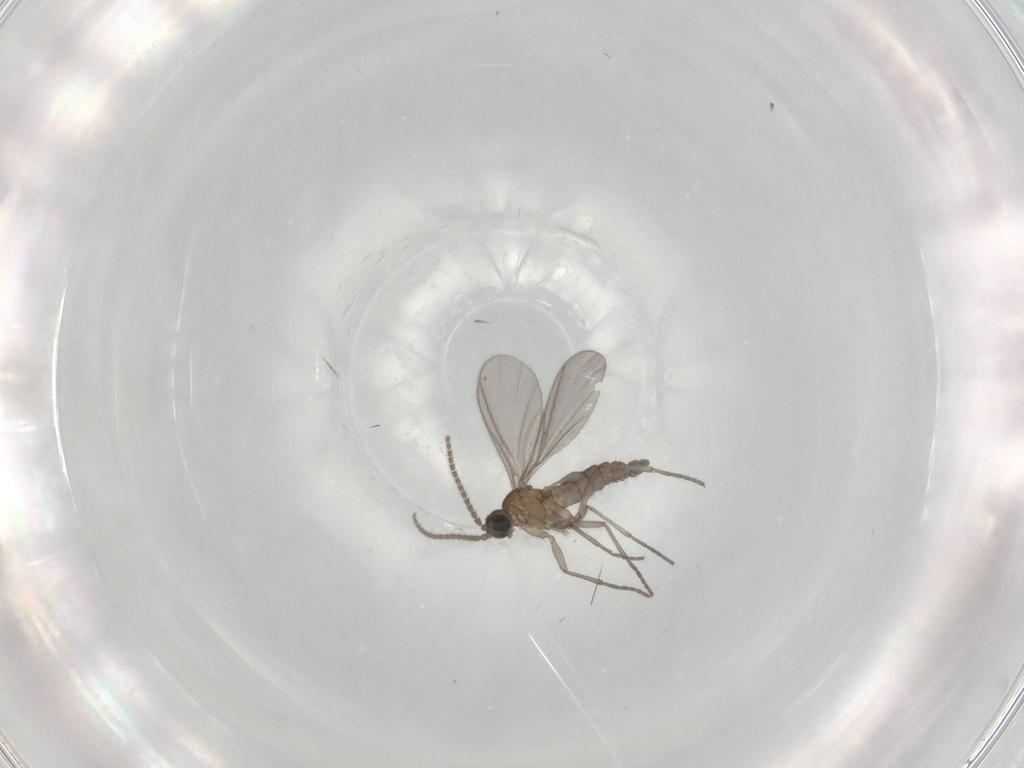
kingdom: Animalia
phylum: Arthropoda
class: Insecta
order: Diptera
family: Sciaridae
